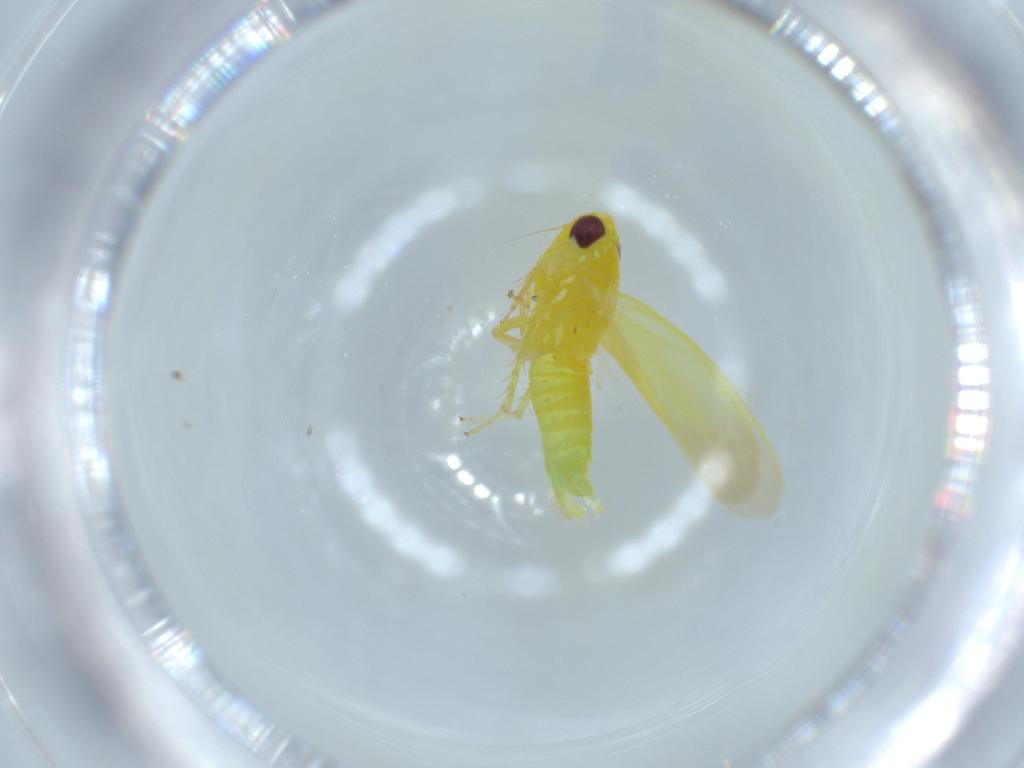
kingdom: Animalia
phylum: Arthropoda
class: Insecta
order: Hemiptera
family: Cicadellidae
